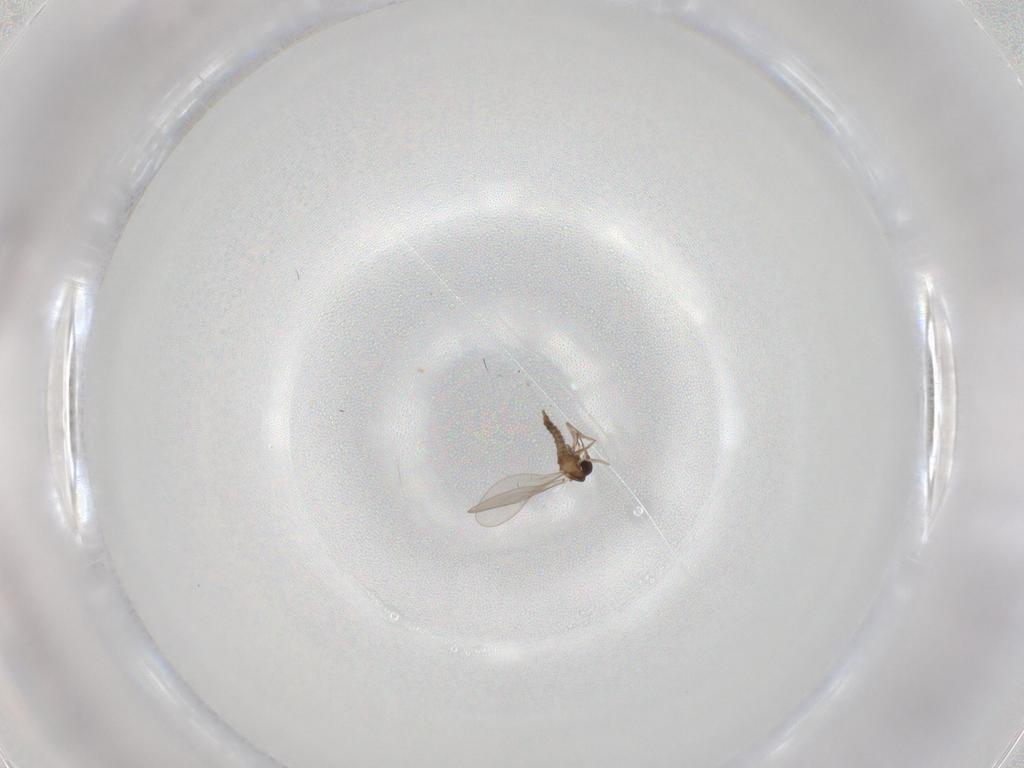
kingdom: Animalia
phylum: Arthropoda
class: Insecta
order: Diptera
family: Cecidomyiidae
